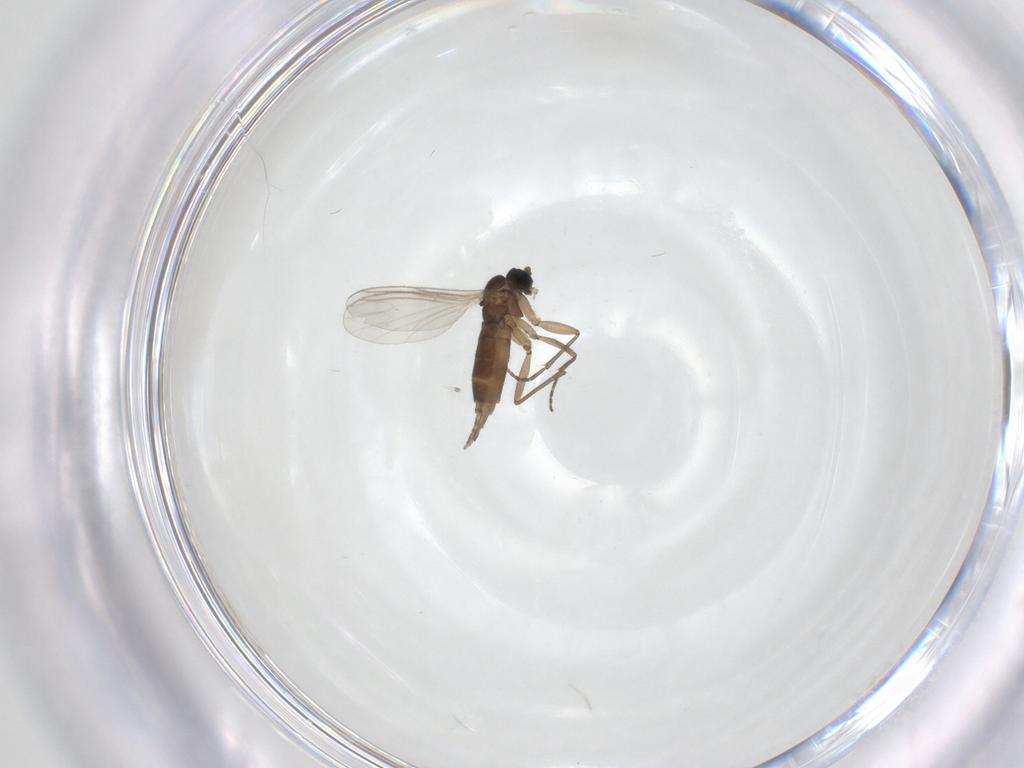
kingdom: Animalia
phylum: Arthropoda
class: Insecta
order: Diptera
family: Sciaridae
